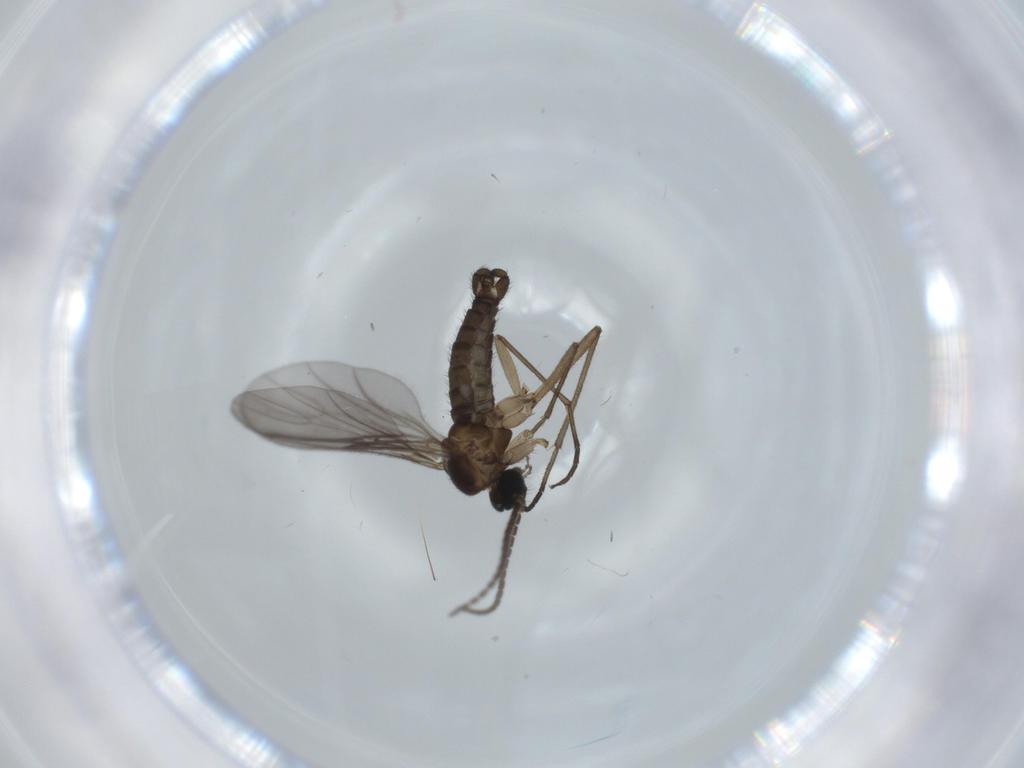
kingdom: Animalia
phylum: Arthropoda
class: Insecta
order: Diptera
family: Sciaridae
